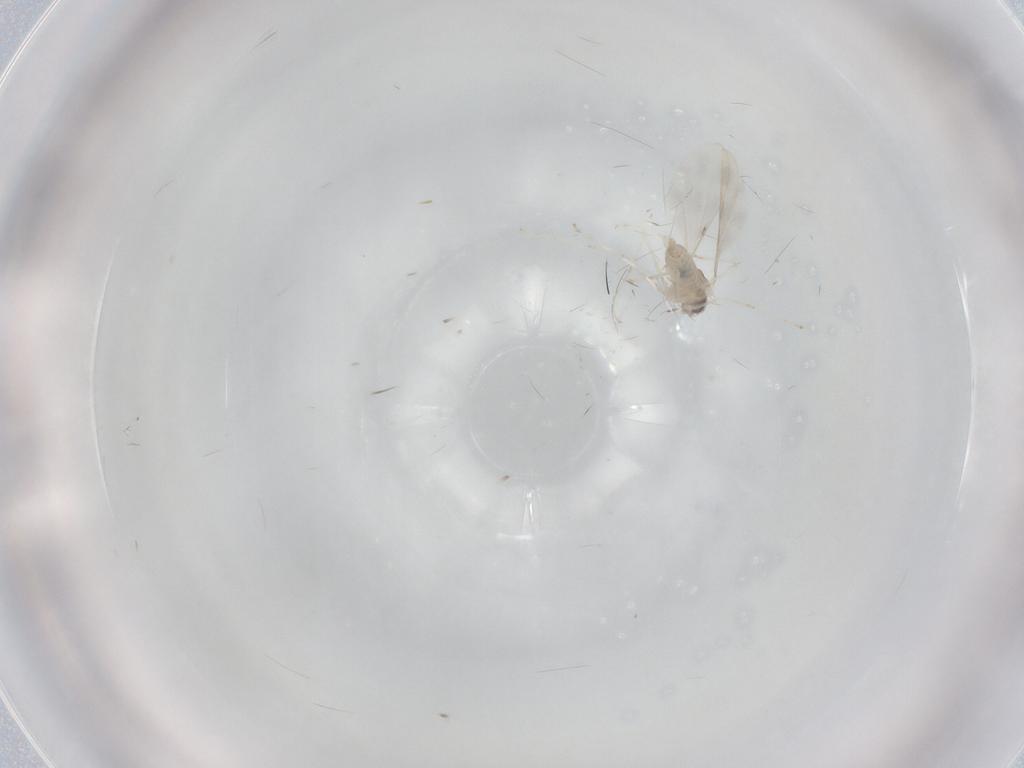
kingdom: Animalia
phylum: Arthropoda
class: Insecta
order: Diptera
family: Cecidomyiidae
